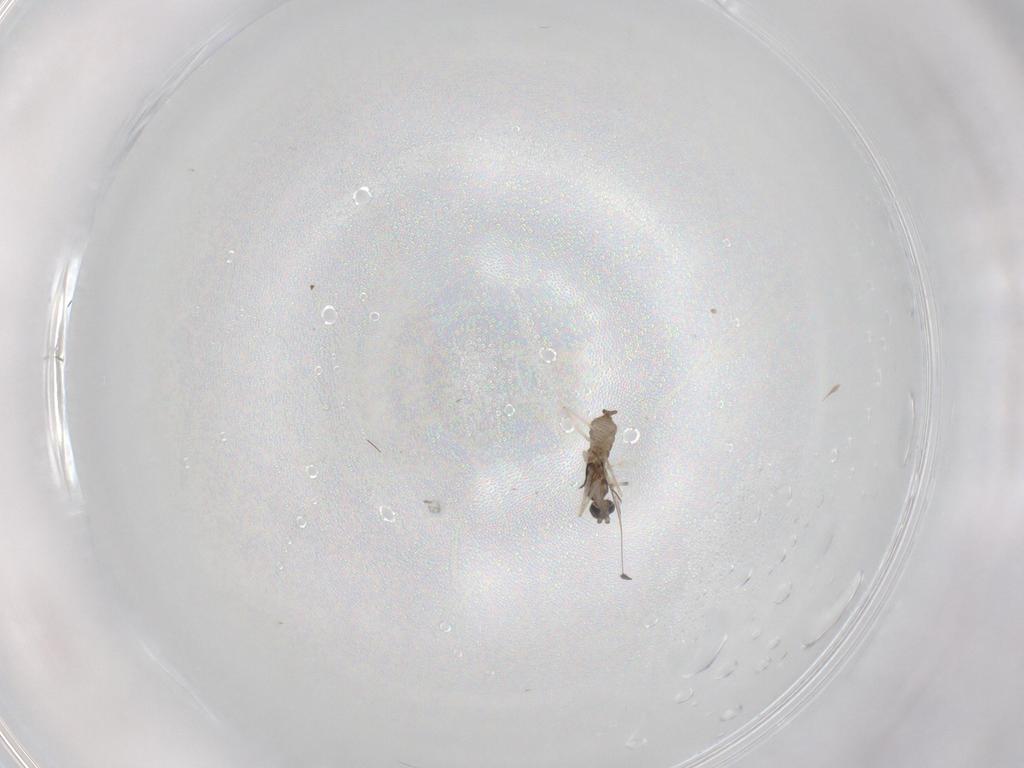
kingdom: Animalia
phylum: Arthropoda
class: Insecta
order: Diptera
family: Cecidomyiidae
